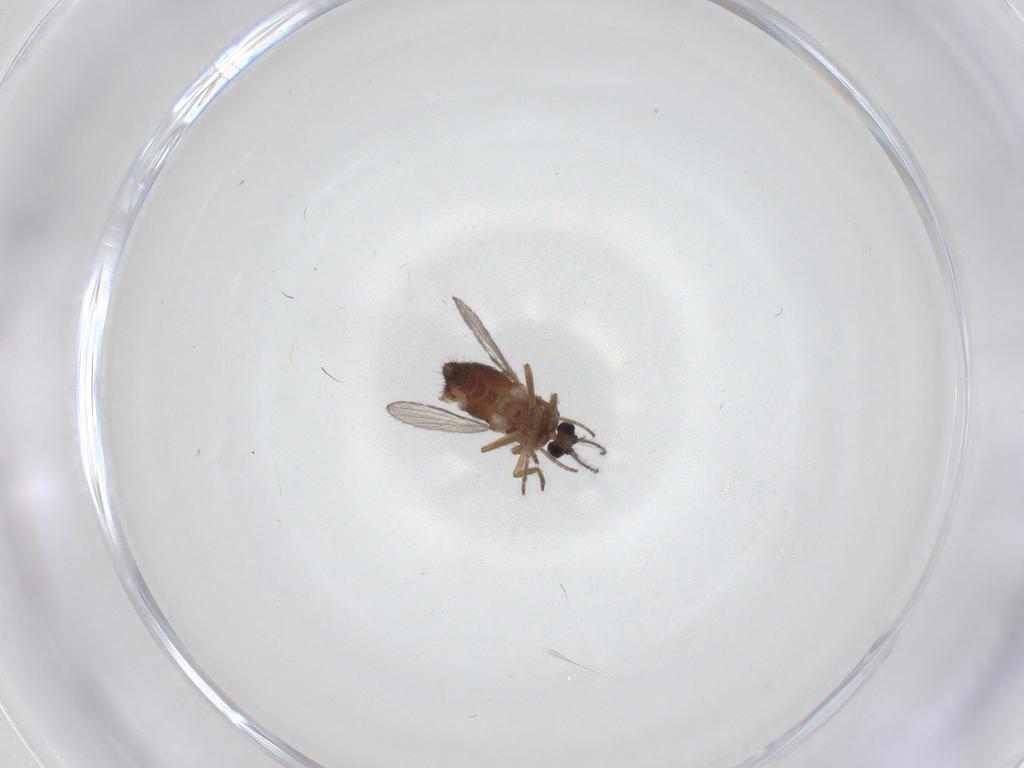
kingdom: Animalia
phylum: Arthropoda
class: Insecta
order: Diptera
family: Ceratopogonidae
